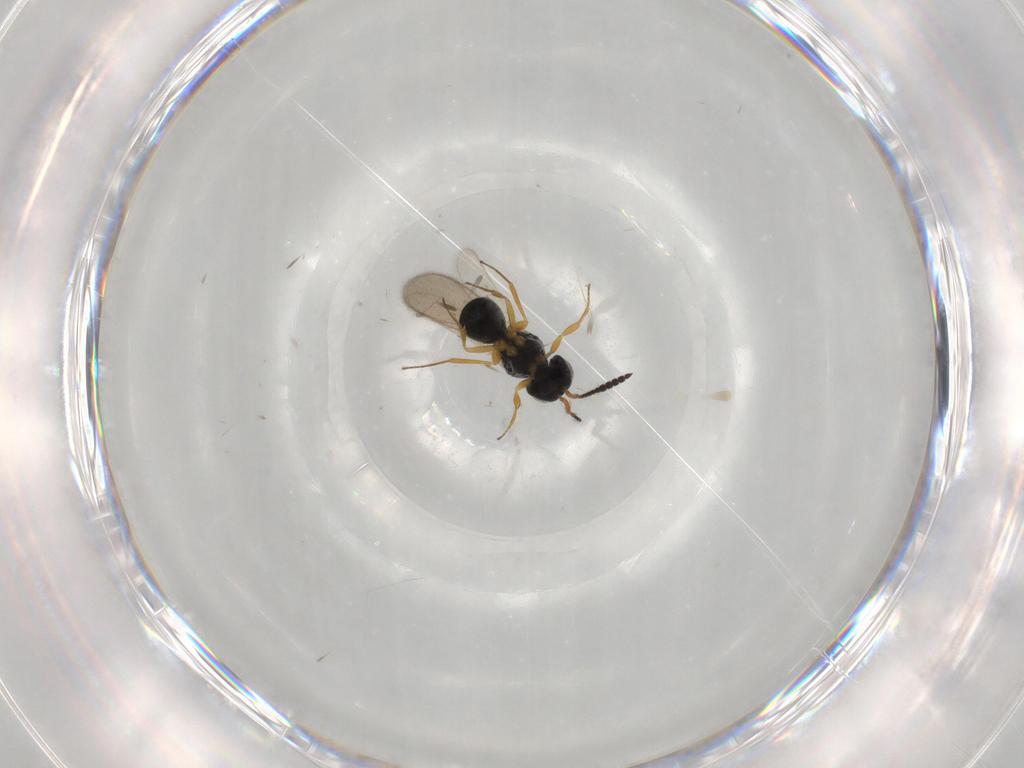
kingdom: Animalia
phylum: Arthropoda
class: Insecta
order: Hymenoptera
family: Scelionidae
